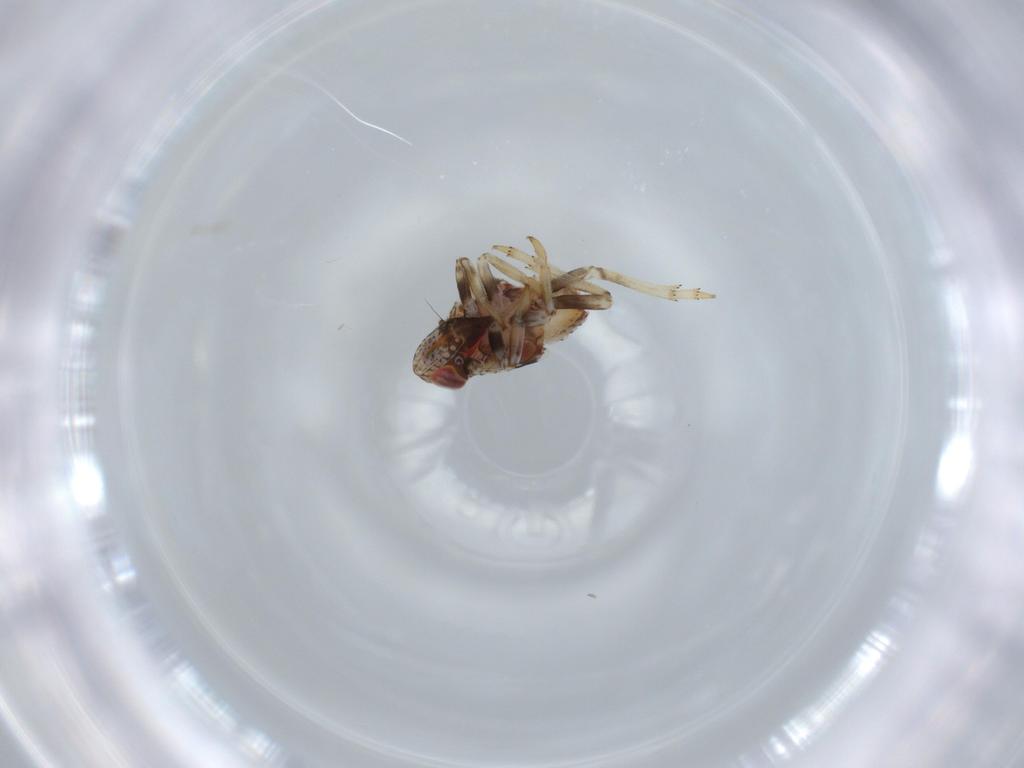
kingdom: Animalia
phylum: Arthropoda
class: Insecta
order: Hemiptera
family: Issidae
